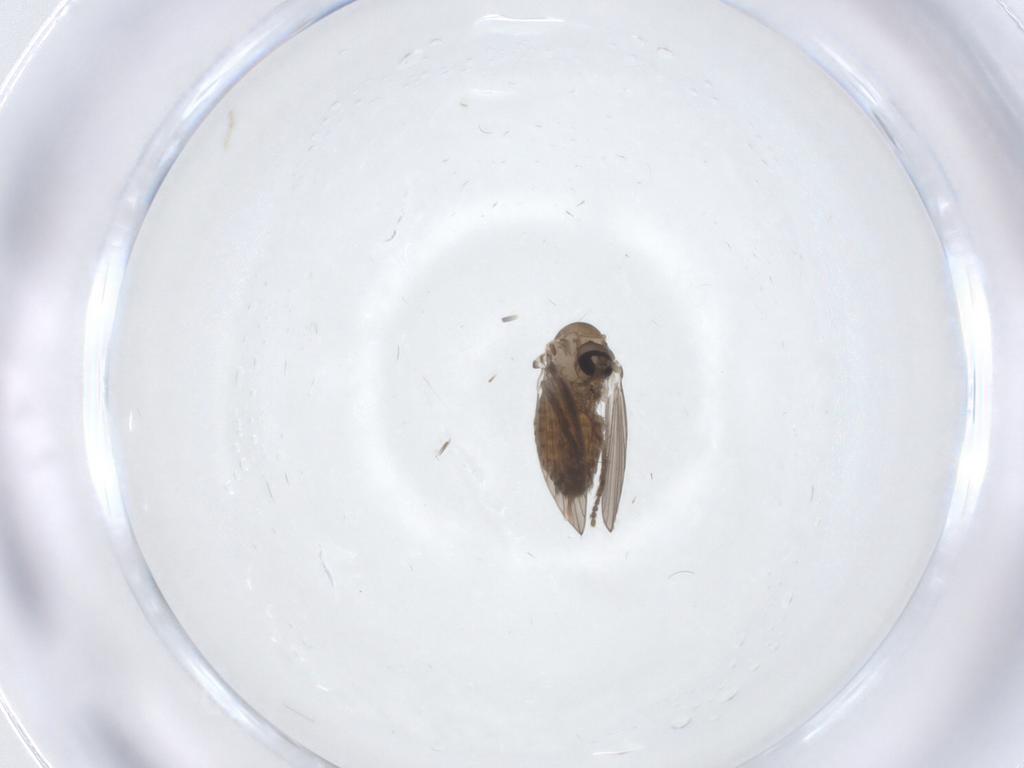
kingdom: Animalia
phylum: Arthropoda
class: Insecta
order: Diptera
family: Psychodidae
